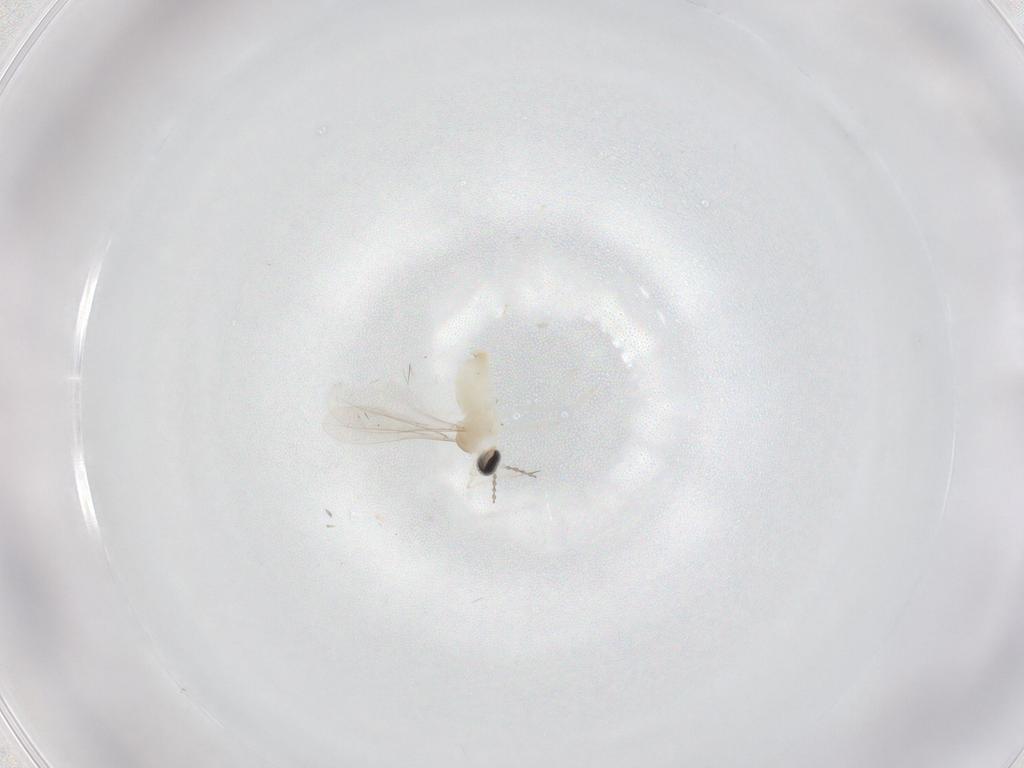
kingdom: Animalia
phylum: Arthropoda
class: Insecta
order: Diptera
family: Cecidomyiidae
